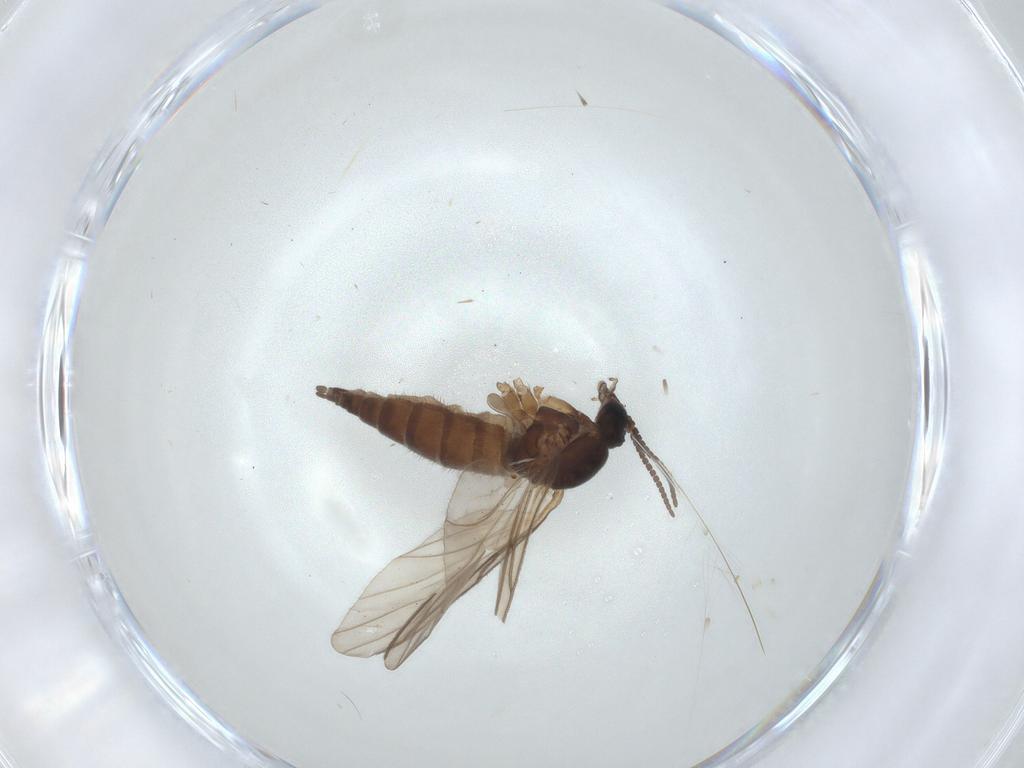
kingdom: Animalia
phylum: Arthropoda
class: Insecta
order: Diptera
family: Sciaridae
